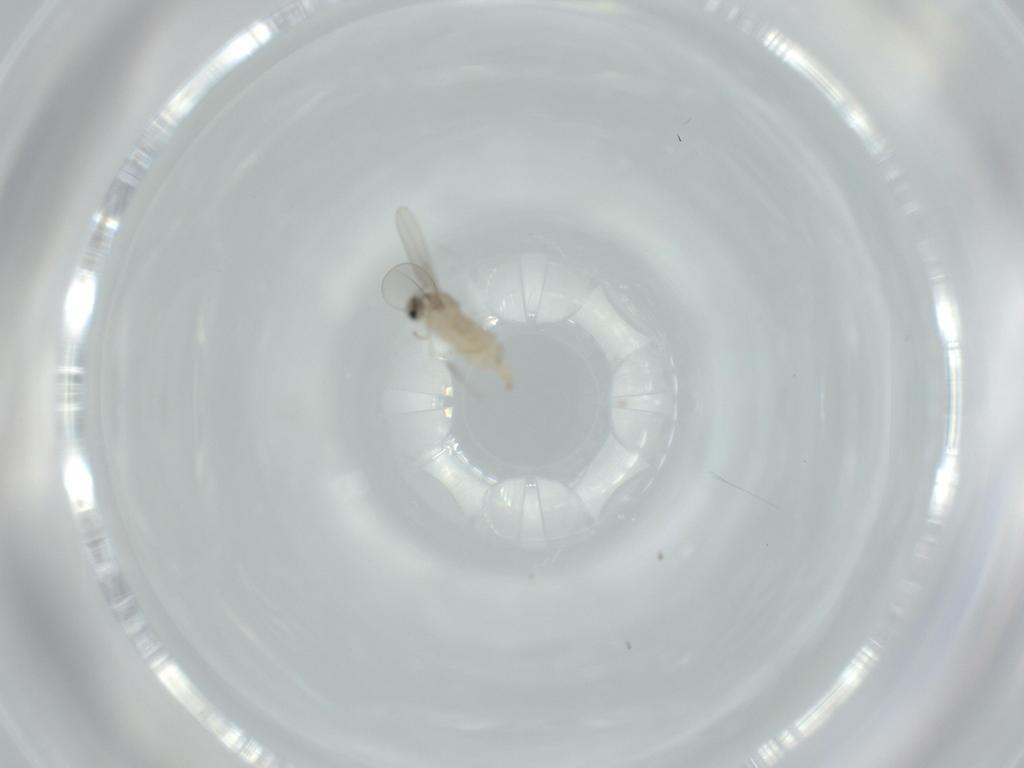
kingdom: Animalia
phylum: Arthropoda
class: Insecta
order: Diptera
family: Cecidomyiidae
